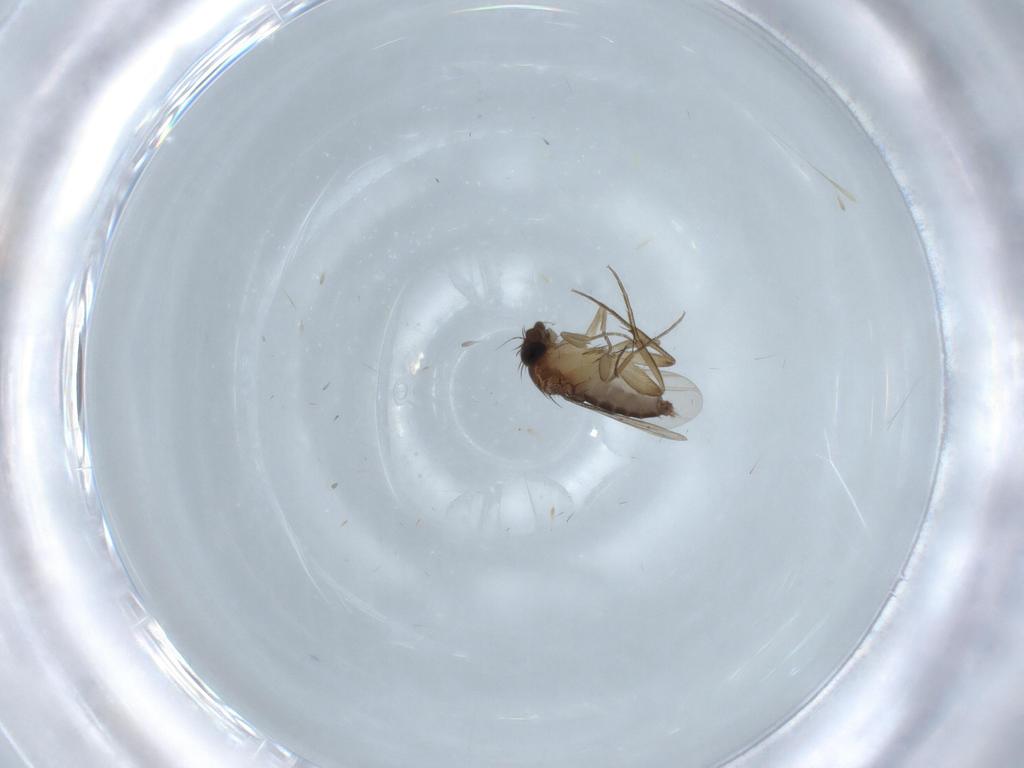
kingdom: Animalia
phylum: Arthropoda
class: Insecta
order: Diptera
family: Phoridae
